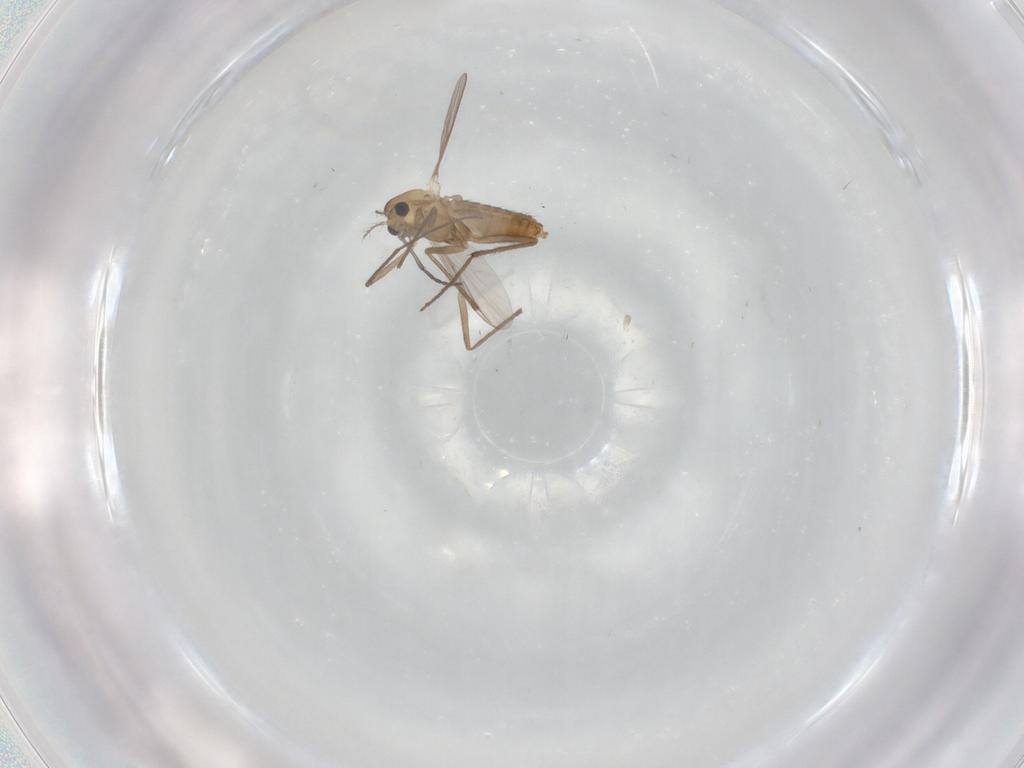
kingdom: Animalia
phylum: Arthropoda
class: Insecta
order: Diptera
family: Chironomidae
